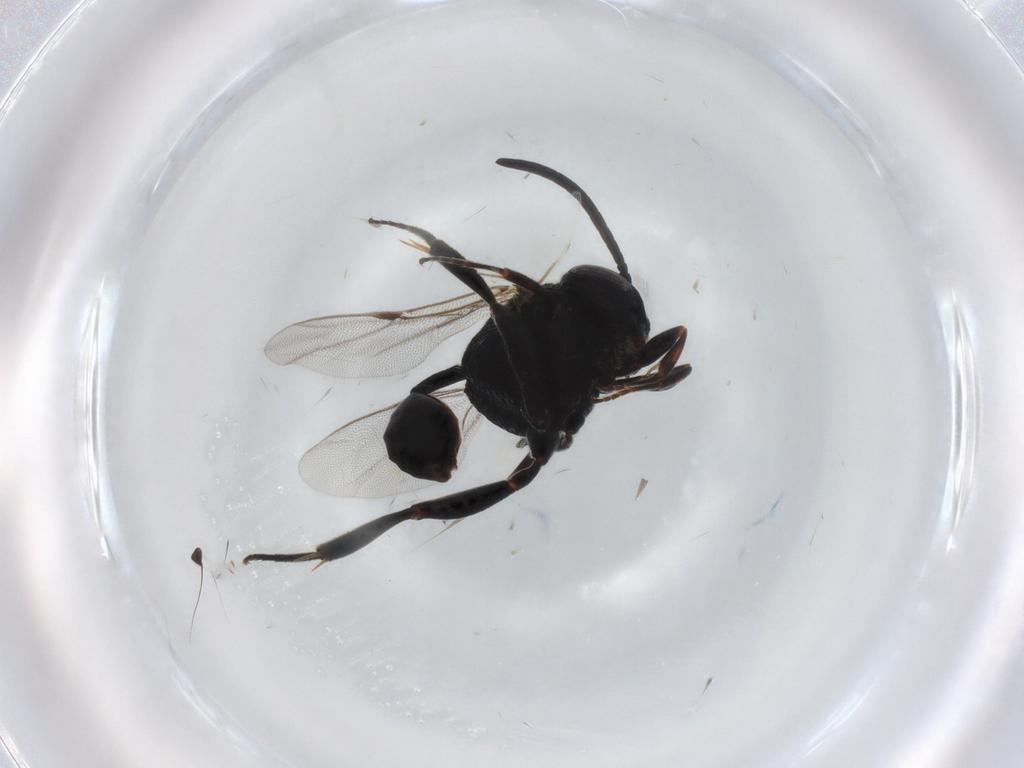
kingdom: Animalia
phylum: Arthropoda
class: Insecta
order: Hymenoptera
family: Evaniidae
